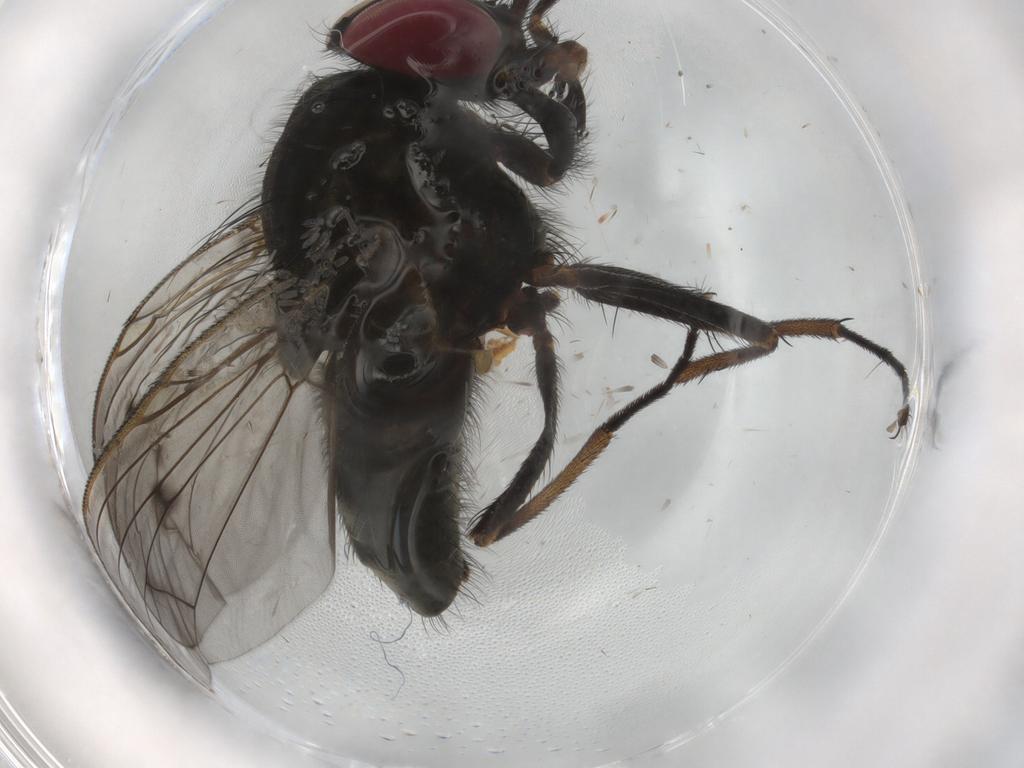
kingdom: Animalia
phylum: Arthropoda
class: Insecta
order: Diptera
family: Muscidae
